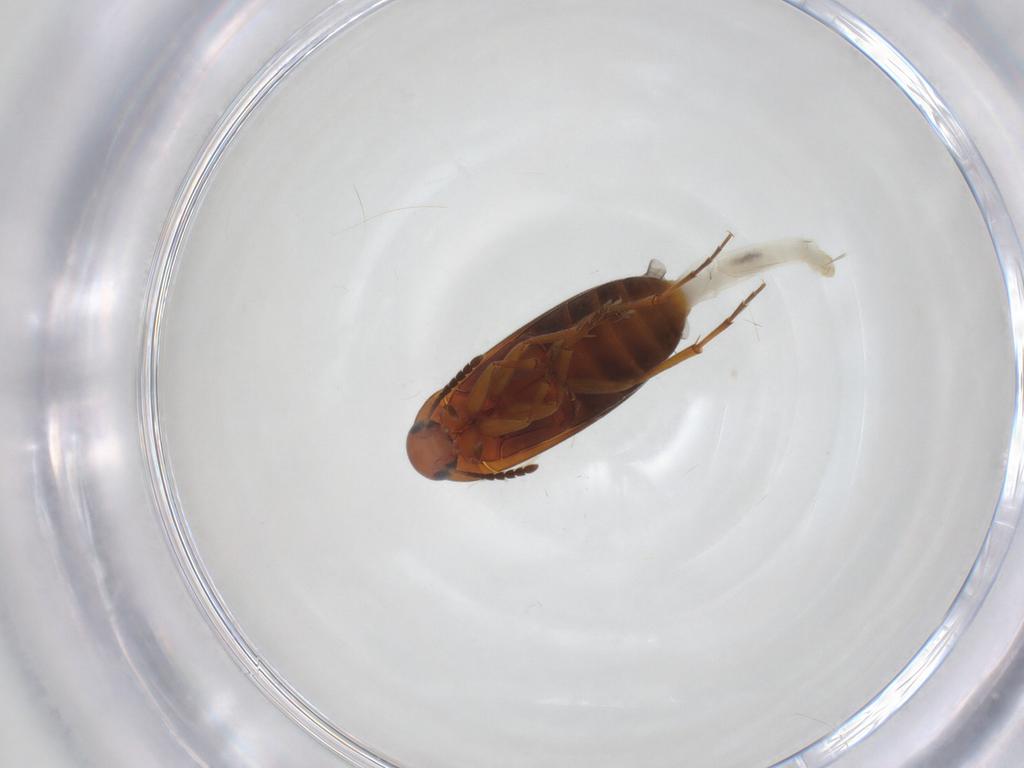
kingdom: Animalia
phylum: Arthropoda
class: Insecta
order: Coleoptera
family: Scraptiidae
